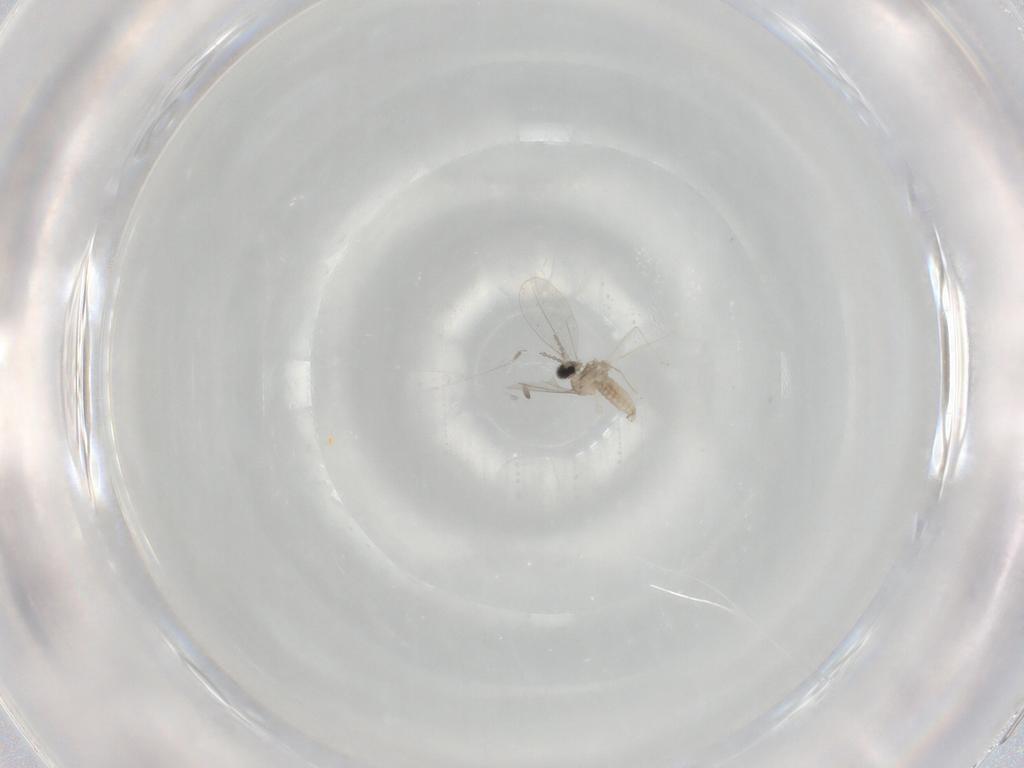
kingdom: Animalia
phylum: Arthropoda
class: Insecta
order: Diptera
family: Cecidomyiidae
